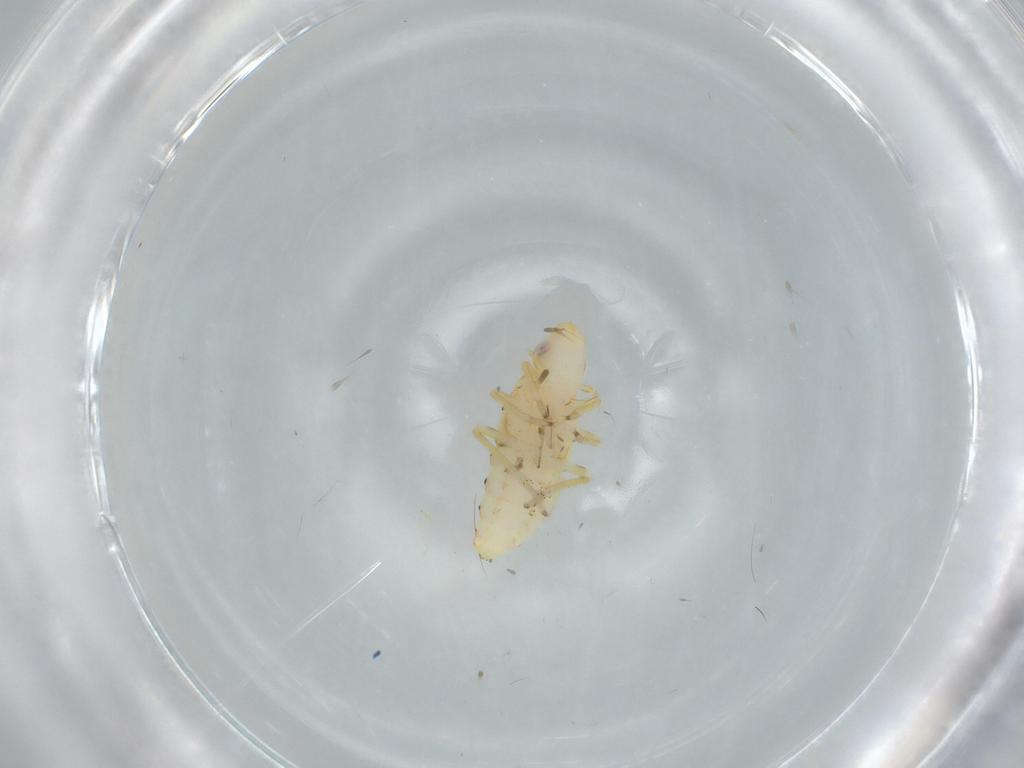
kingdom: Animalia
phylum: Arthropoda
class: Insecta
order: Hemiptera
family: Tropiduchidae
